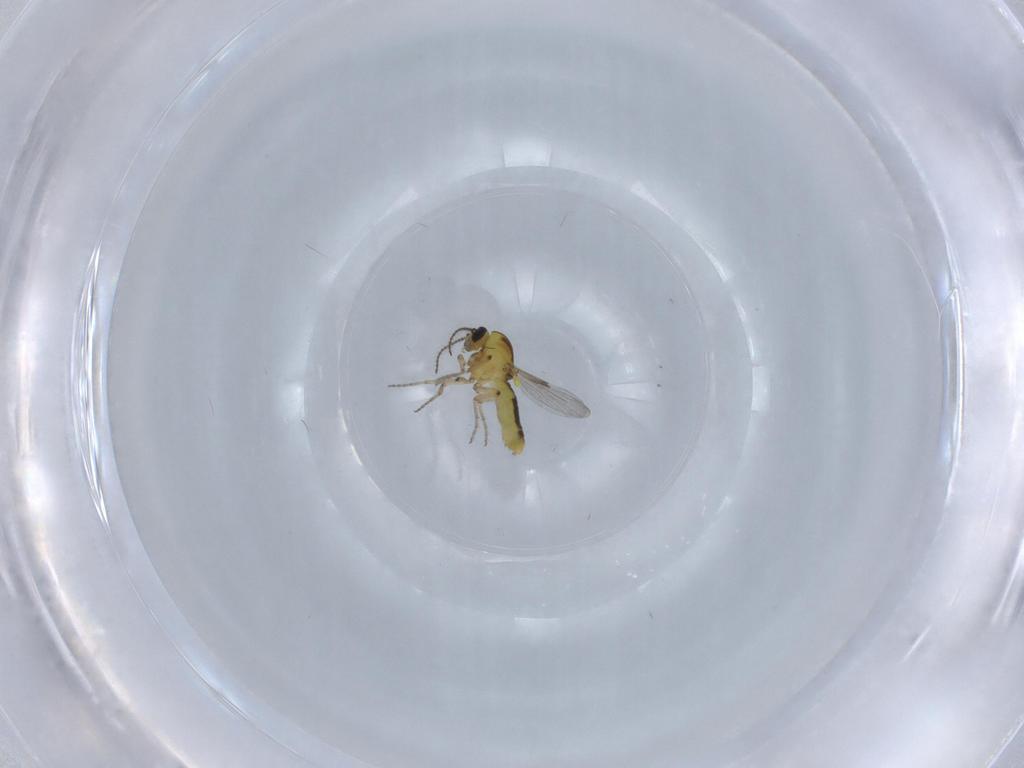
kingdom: Animalia
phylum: Arthropoda
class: Insecta
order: Diptera
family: Ceratopogonidae
